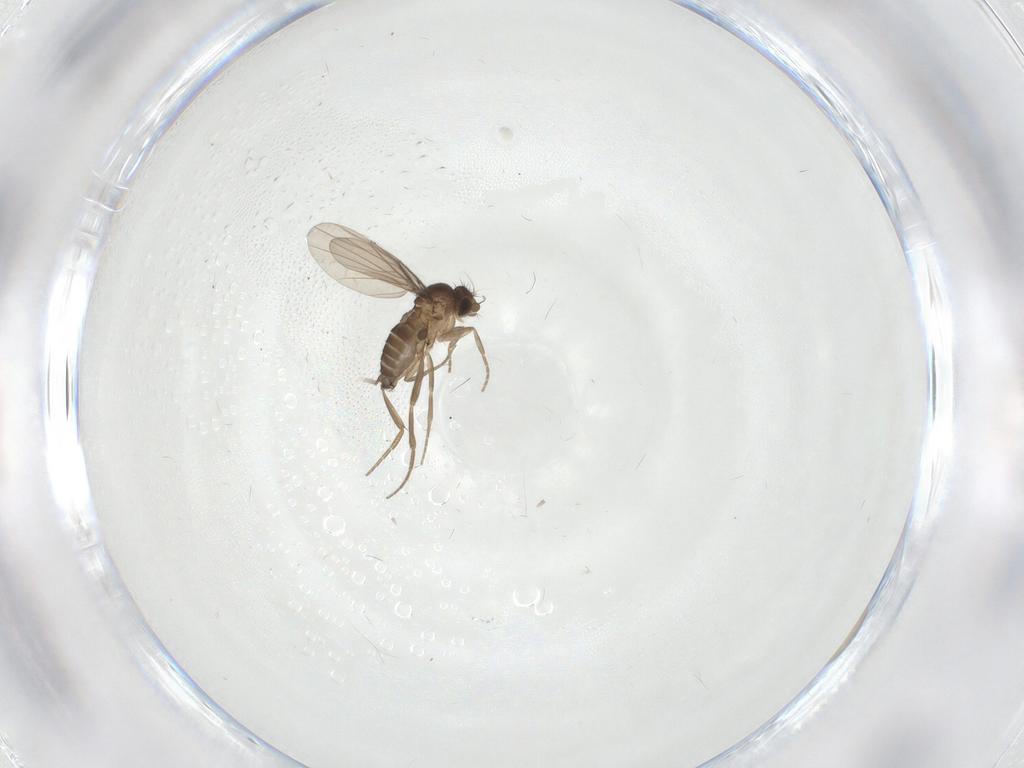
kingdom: Animalia
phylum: Arthropoda
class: Insecta
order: Diptera
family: Phoridae
